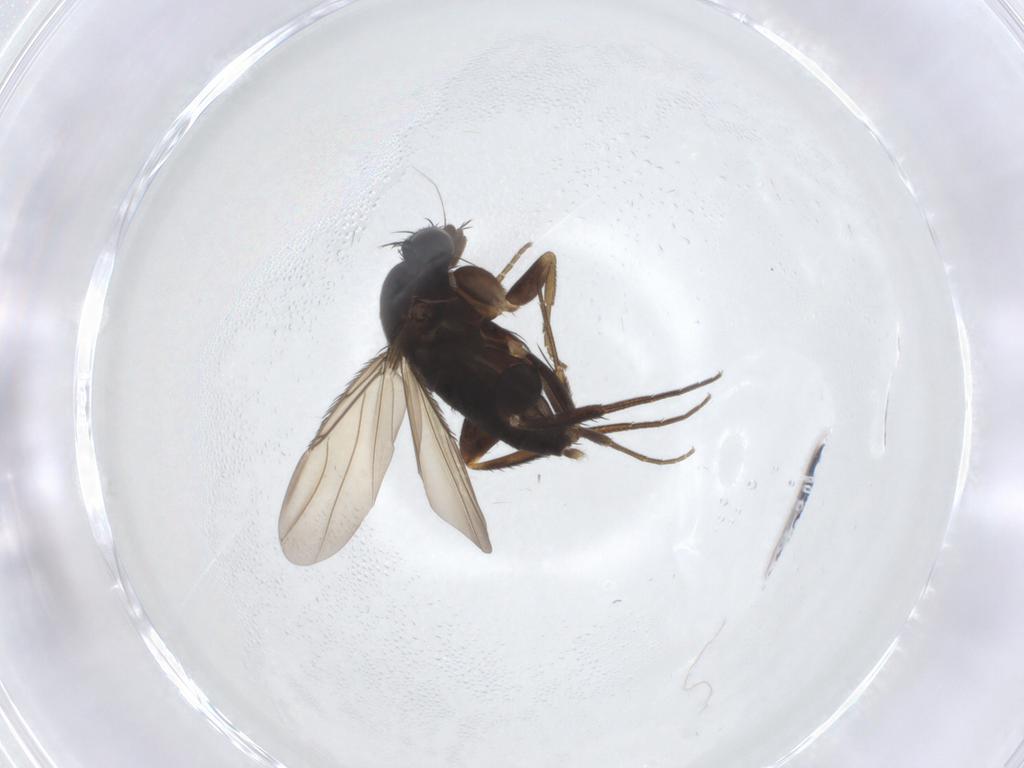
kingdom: Animalia
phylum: Arthropoda
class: Insecta
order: Diptera
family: Phoridae
